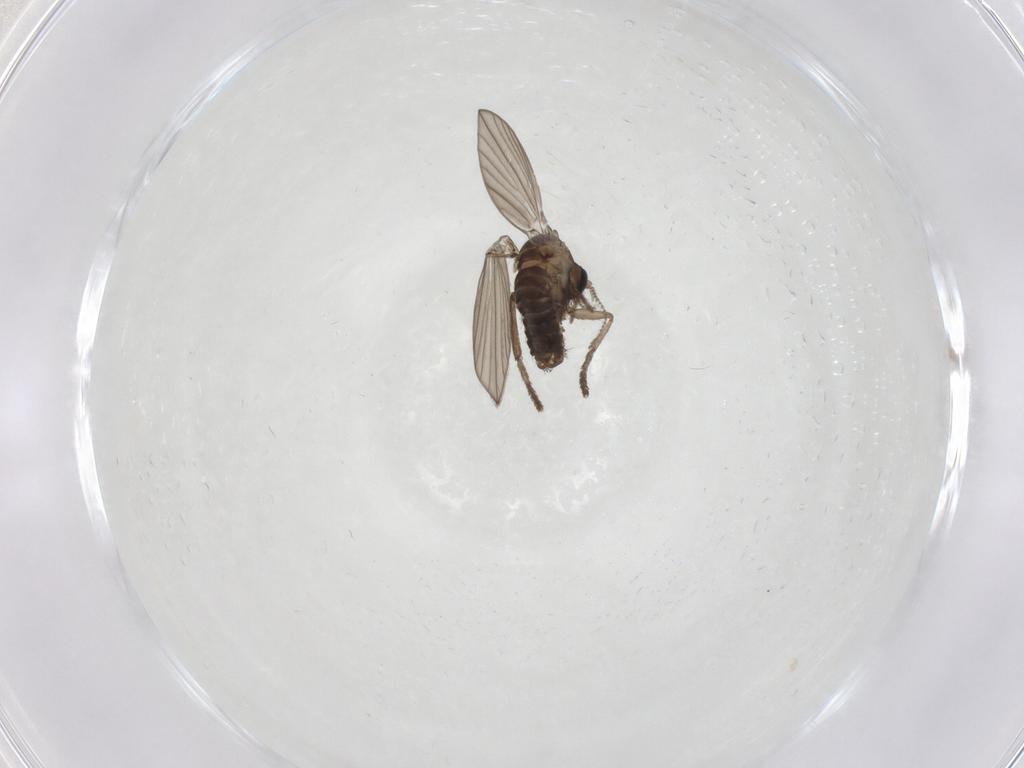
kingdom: Animalia
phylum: Arthropoda
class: Insecta
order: Diptera
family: Psychodidae
